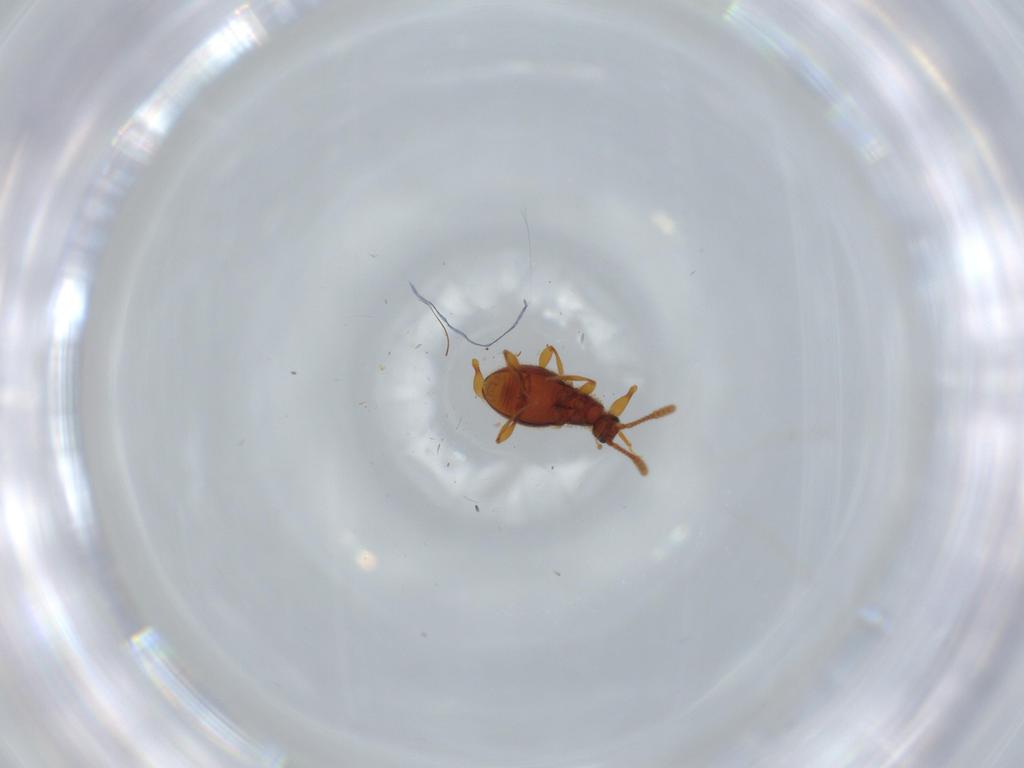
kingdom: Animalia
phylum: Arthropoda
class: Insecta
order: Coleoptera
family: Staphylinidae
